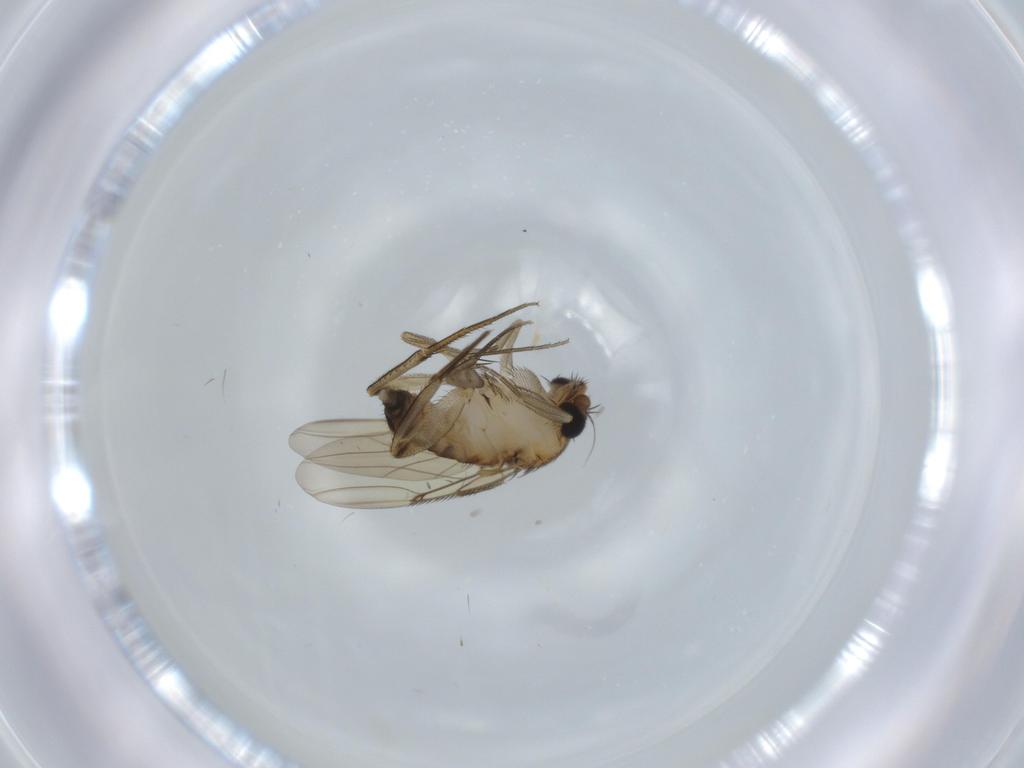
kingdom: Animalia
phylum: Arthropoda
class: Insecta
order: Diptera
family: Phoridae
